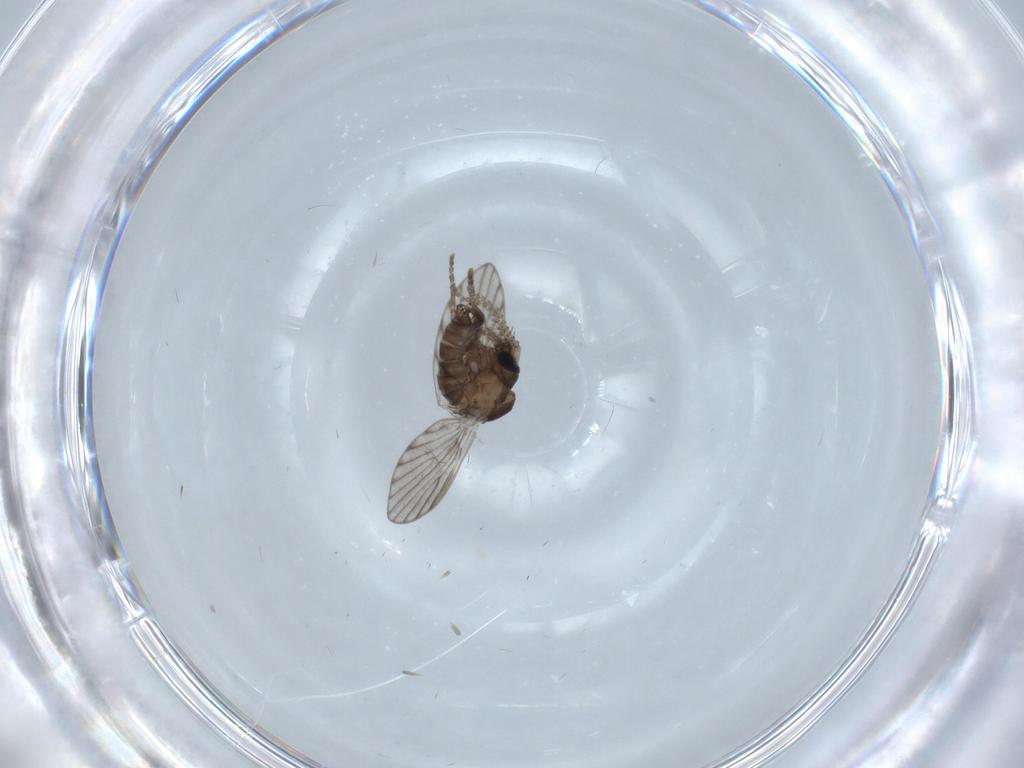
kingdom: Animalia
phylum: Arthropoda
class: Insecta
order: Diptera
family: Psychodidae
